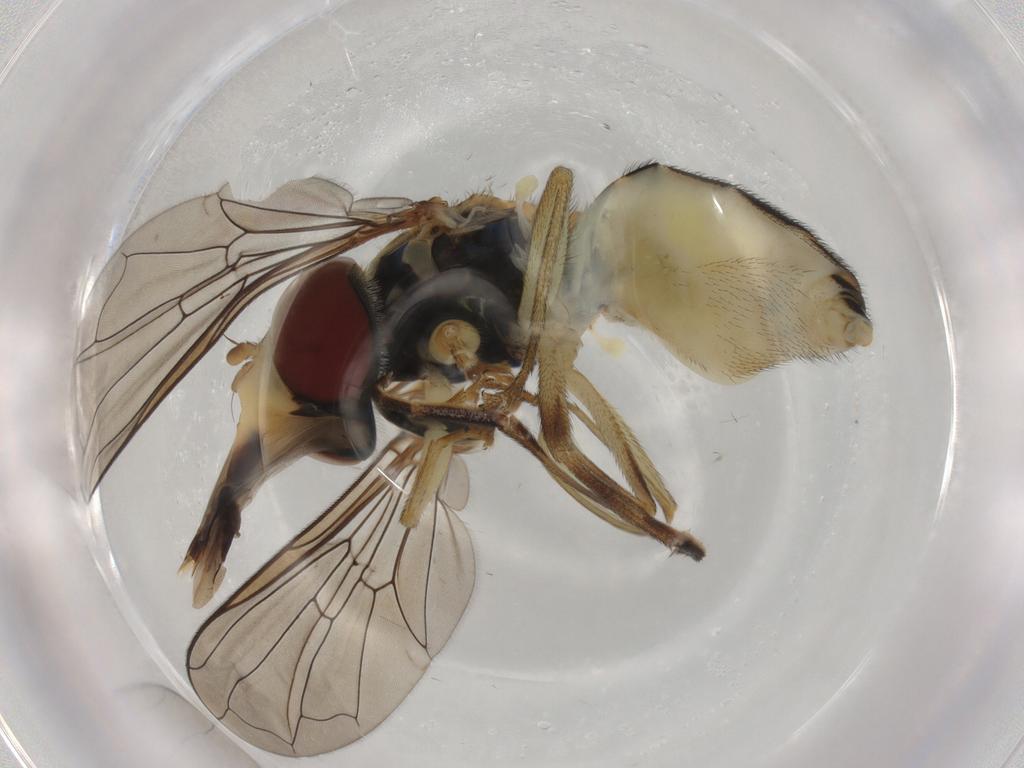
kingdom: Animalia
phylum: Arthropoda
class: Insecta
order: Diptera
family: Syrphidae
